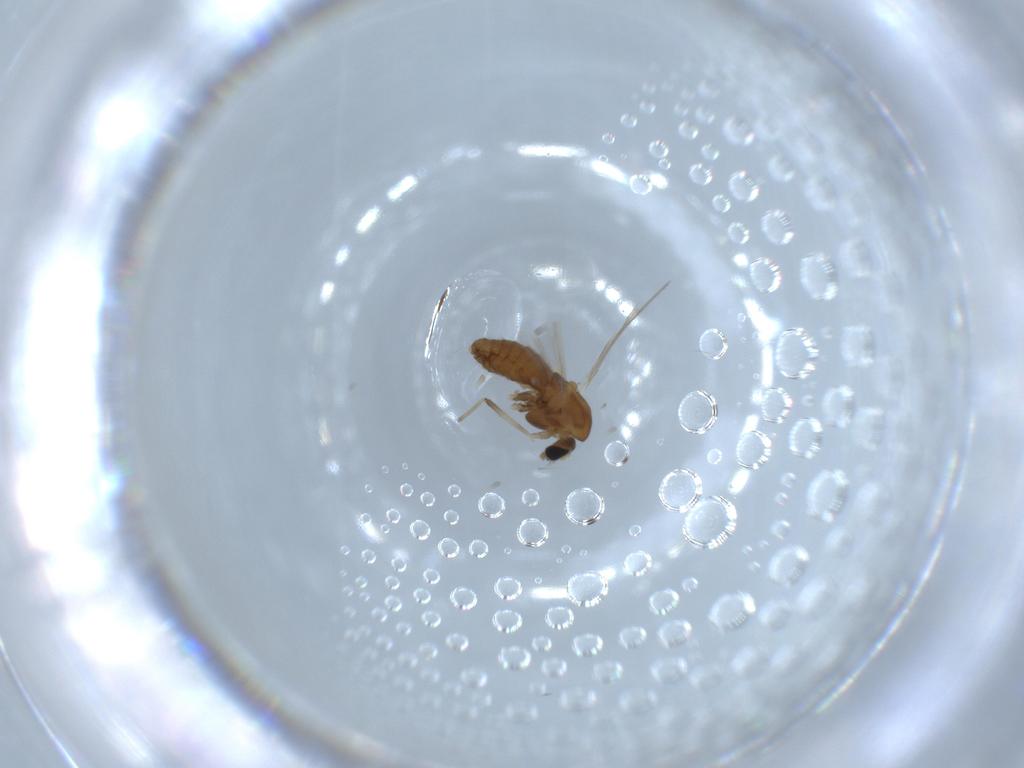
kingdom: Animalia
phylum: Arthropoda
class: Insecta
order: Diptera
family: Chironomidae
